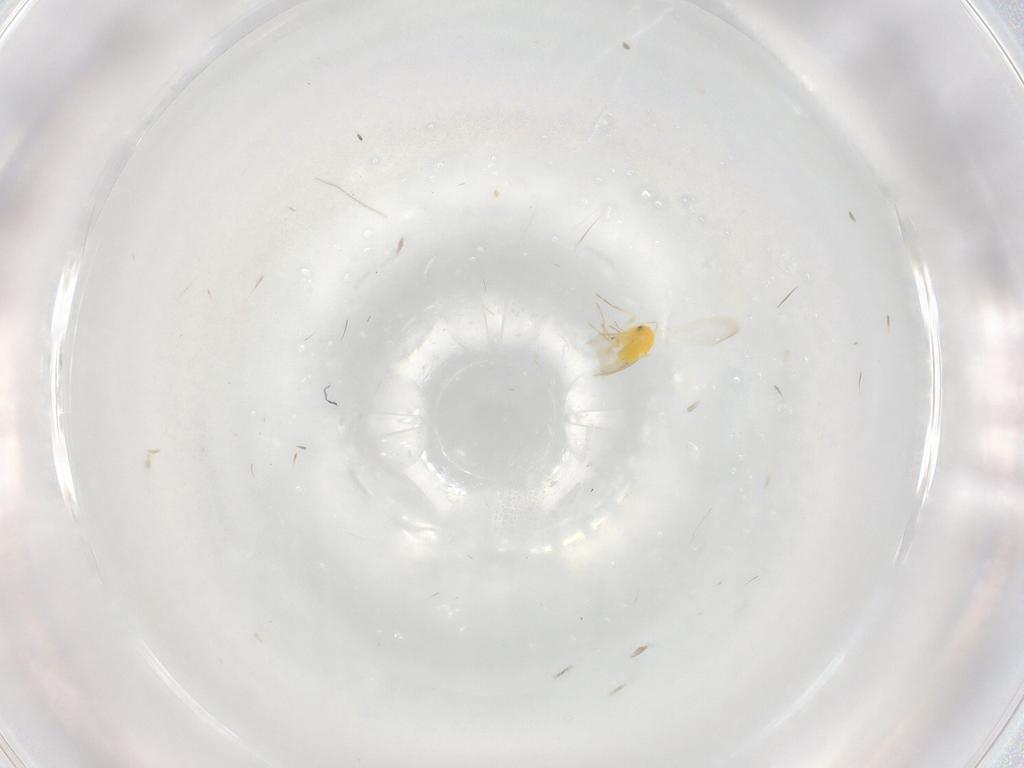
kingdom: Animalia
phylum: Arthropoda
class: Insecta
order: Hemiptera
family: Aleyrodidae
